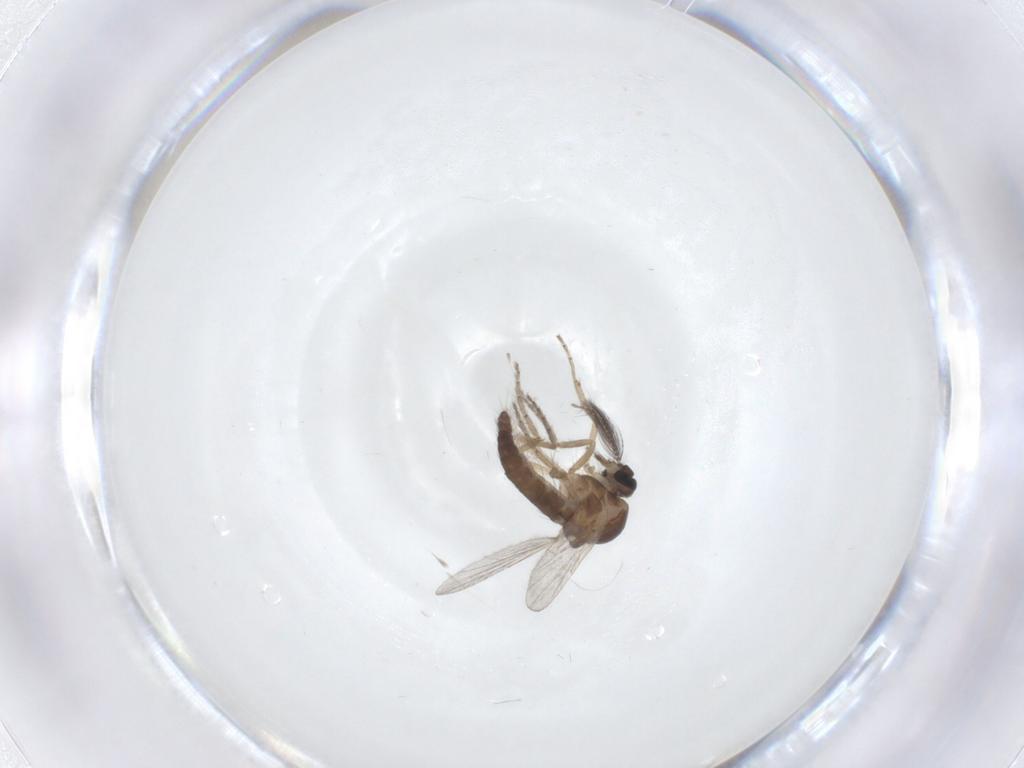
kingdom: Animalia
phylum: Arthropoda
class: Insecta
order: Diptera
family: Ceratopogonidae
